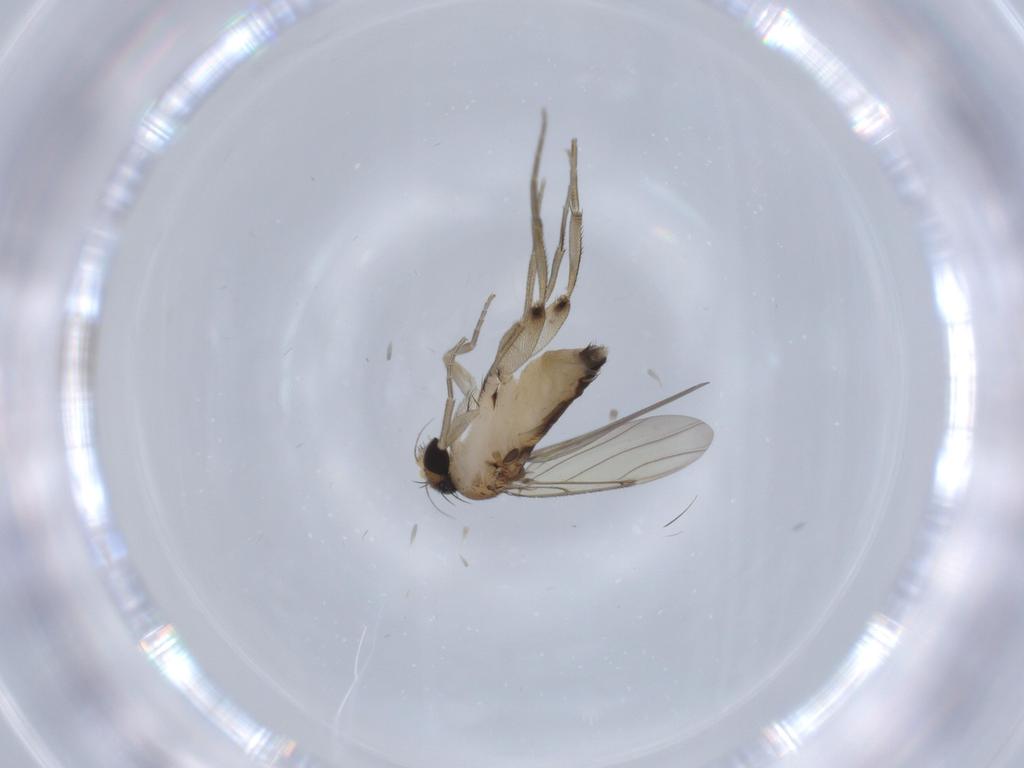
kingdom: Animalia
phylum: Arthropoda
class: Insecta
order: Diptera
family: Phoridae
